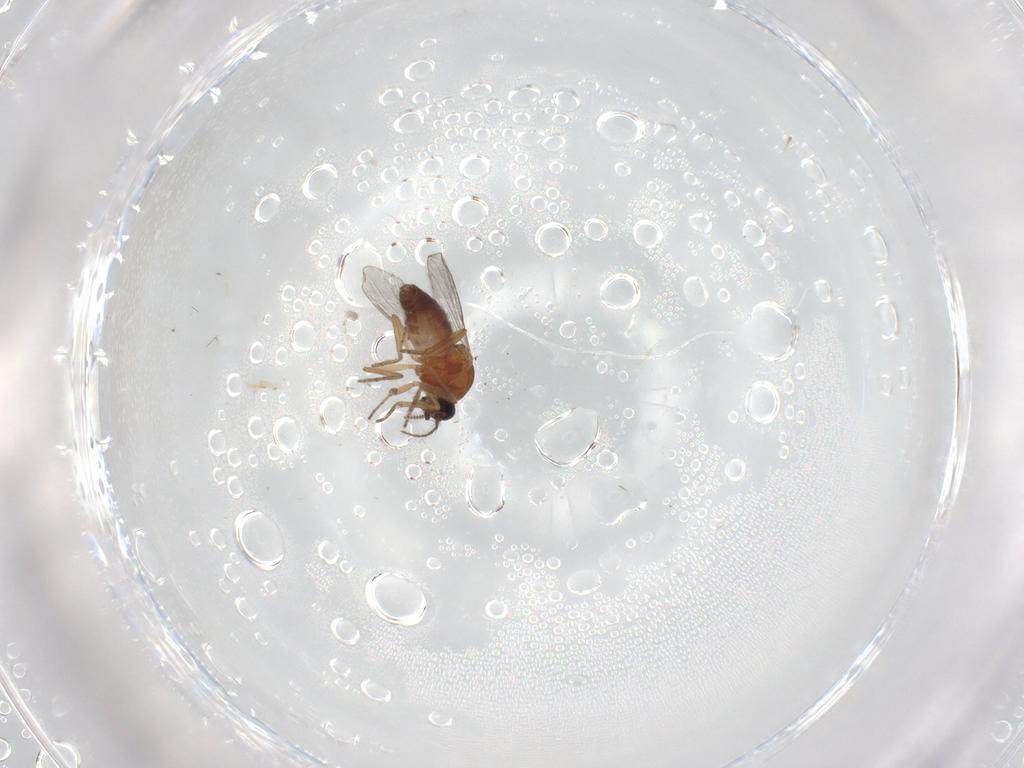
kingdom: Animalia
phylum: Arthropoda
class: Insecta
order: Diptera
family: Ceratopogonidae
